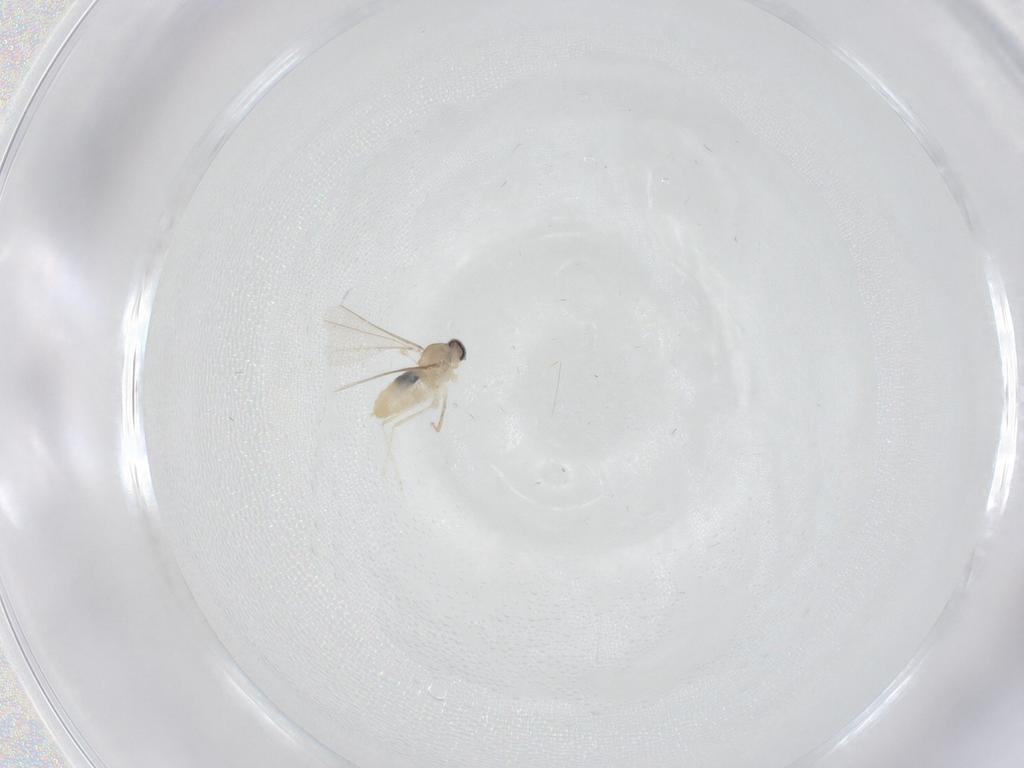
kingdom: Animalia
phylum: Arthropoda
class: Insecta
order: Diptera
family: Cecidomyiidae
